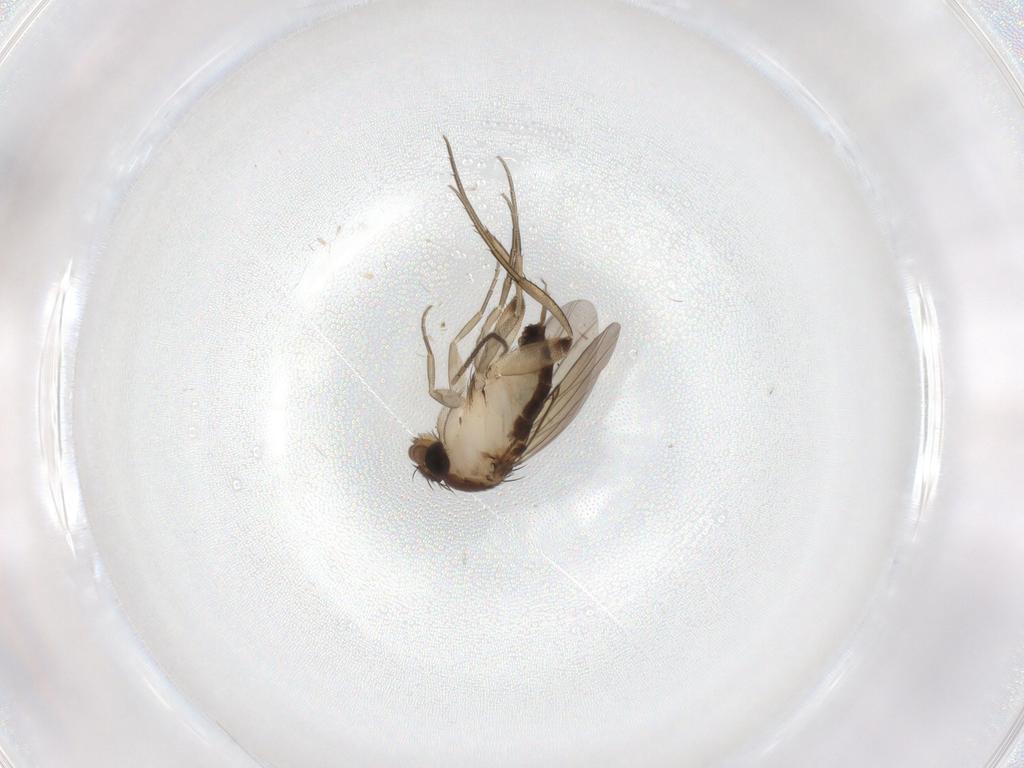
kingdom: Animalia
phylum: Arthropoda
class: Insecta
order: Diptera
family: Phoridae
